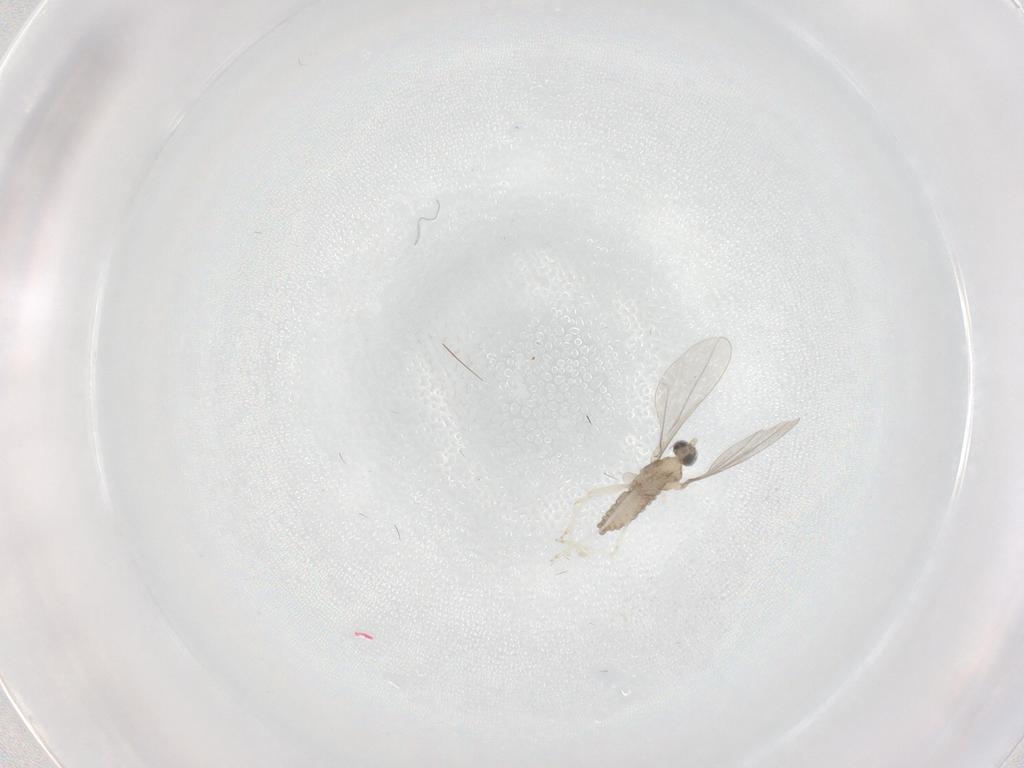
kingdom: Animalia
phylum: Arthropoda
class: Insecta
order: Diptera
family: Cecidomyiidae
